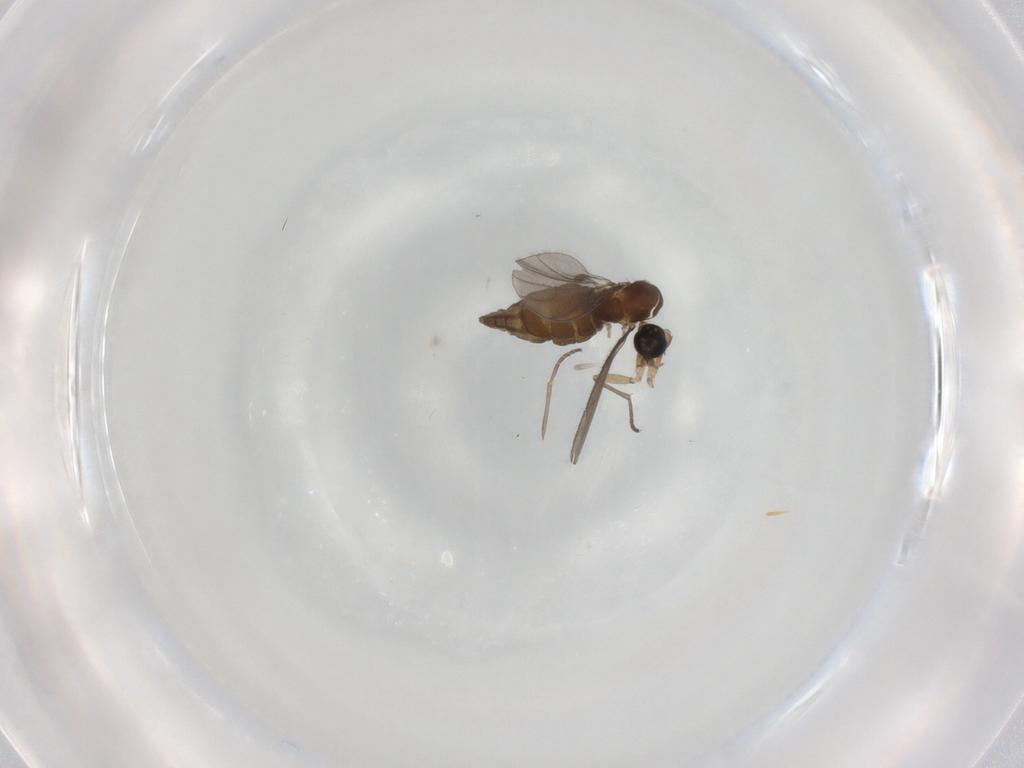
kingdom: Animalia
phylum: Arthropoda
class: Insecta
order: Diptera
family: Sciaridae
